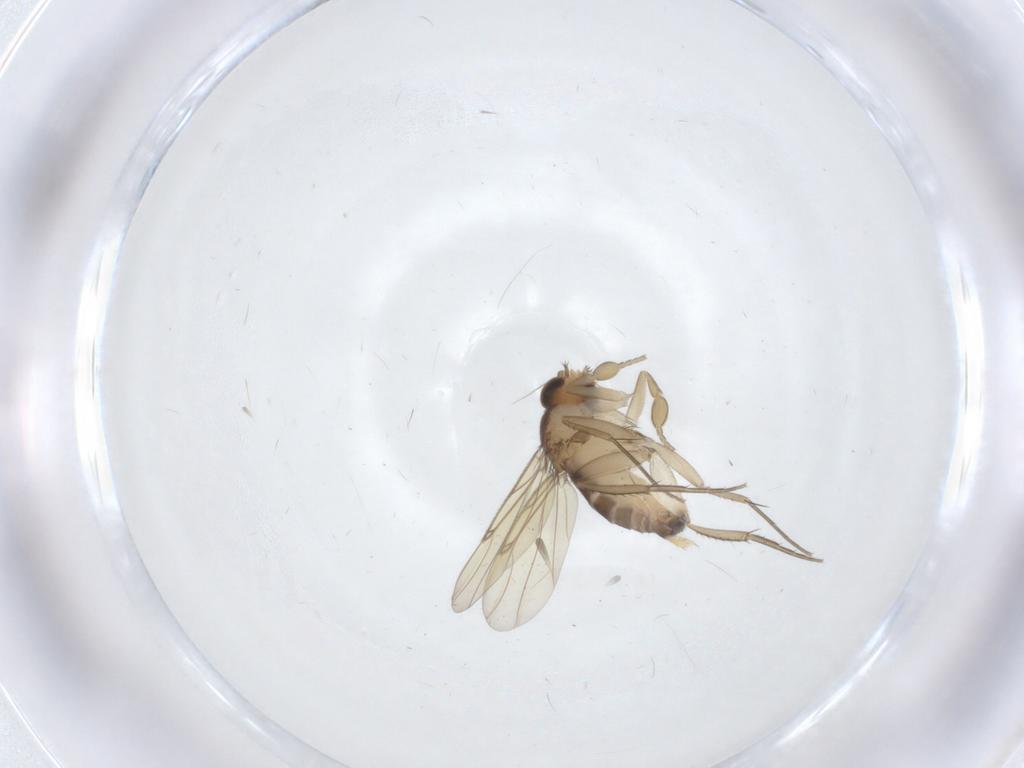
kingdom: Animalia
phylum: Arthropoda
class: Insecta
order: Diptera
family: Phoridae
